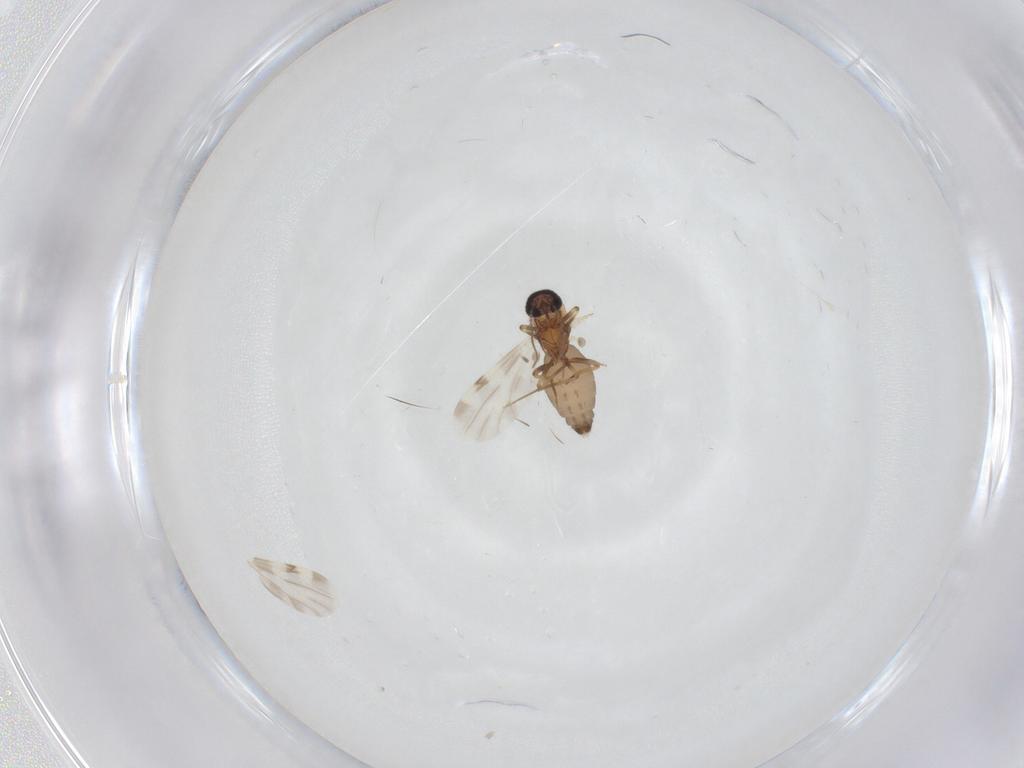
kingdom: Animalia
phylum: Arthropoda
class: Insecta
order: Diptera
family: Ceratopogonidae
